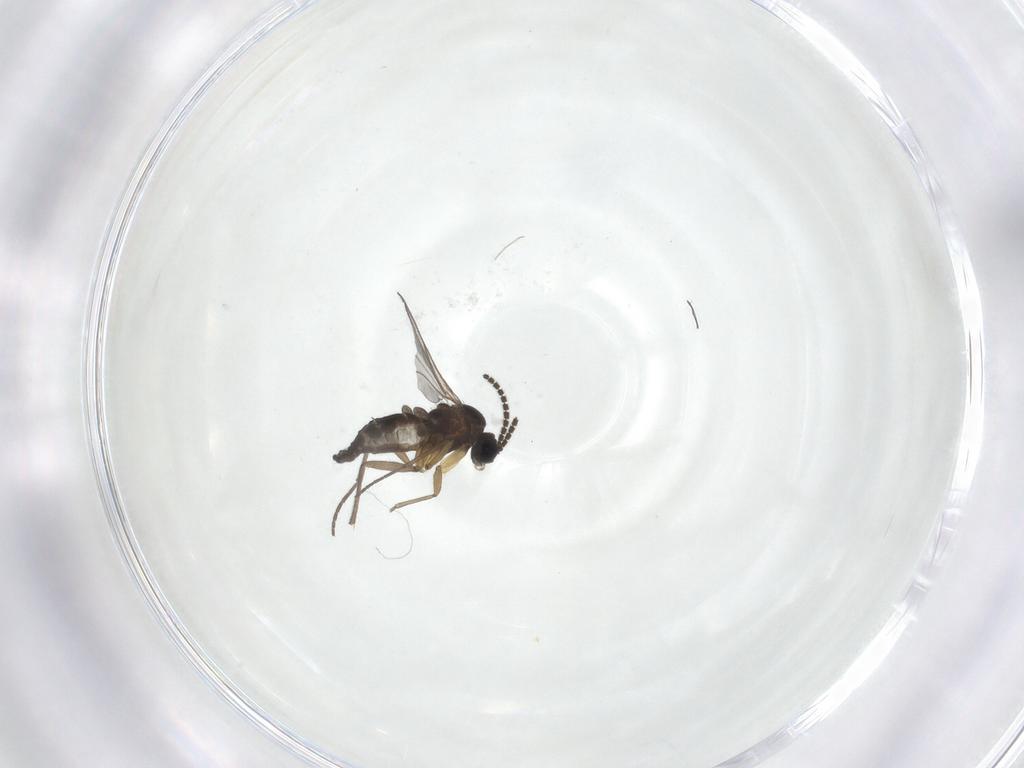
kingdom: Animalia
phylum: Arthropoda
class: Insecta
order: Diptera
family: Sciaridae
